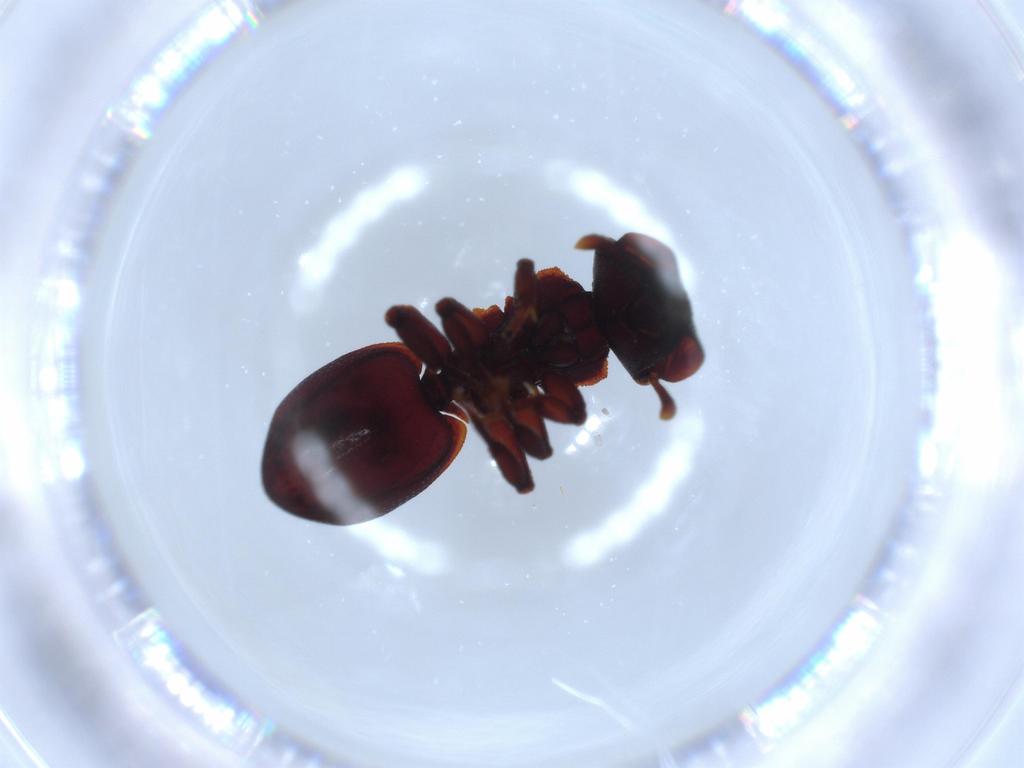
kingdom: Animalia
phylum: Arthropoda
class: Insecta
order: Hymenoptera
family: Formicidae
